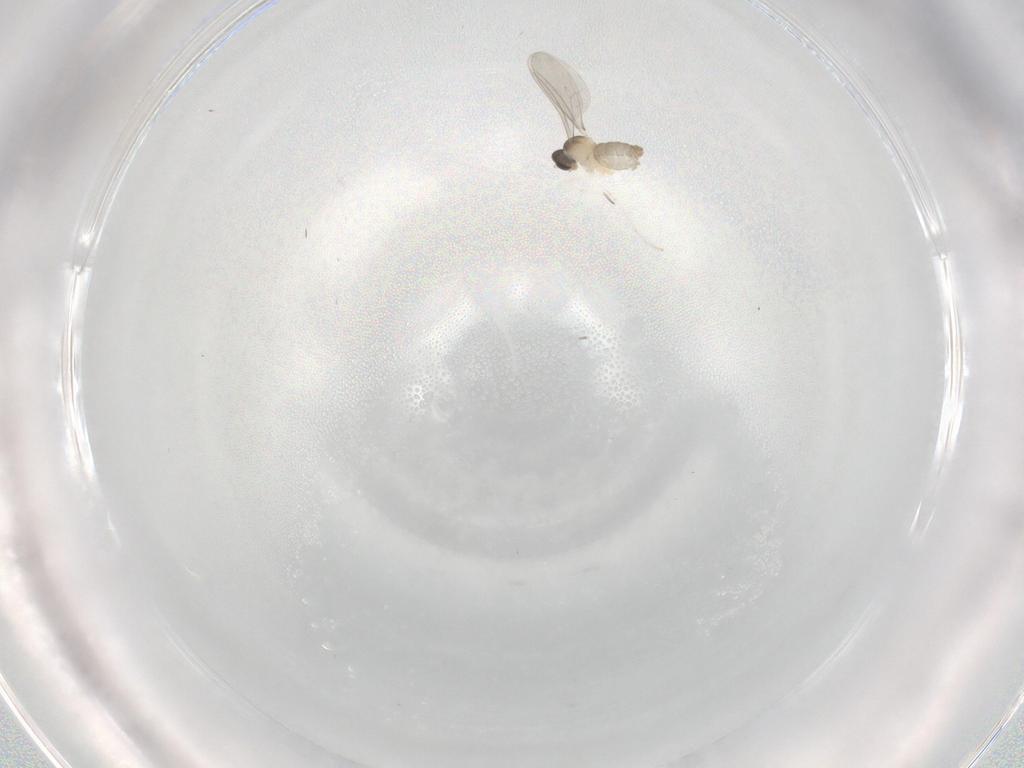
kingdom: Animalia
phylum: Arthropoda
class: Insecta
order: Diptera
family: Cecidomyiidae
